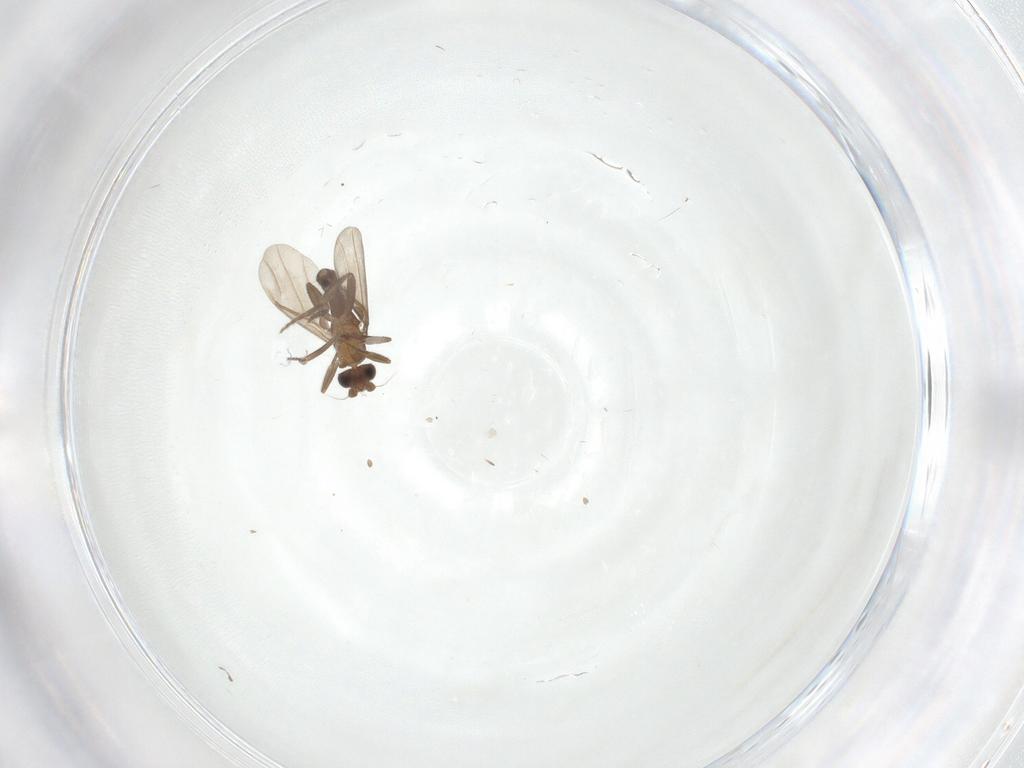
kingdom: Animalia
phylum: Arthropoda
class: Insecta
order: Diptera
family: Phoridae
